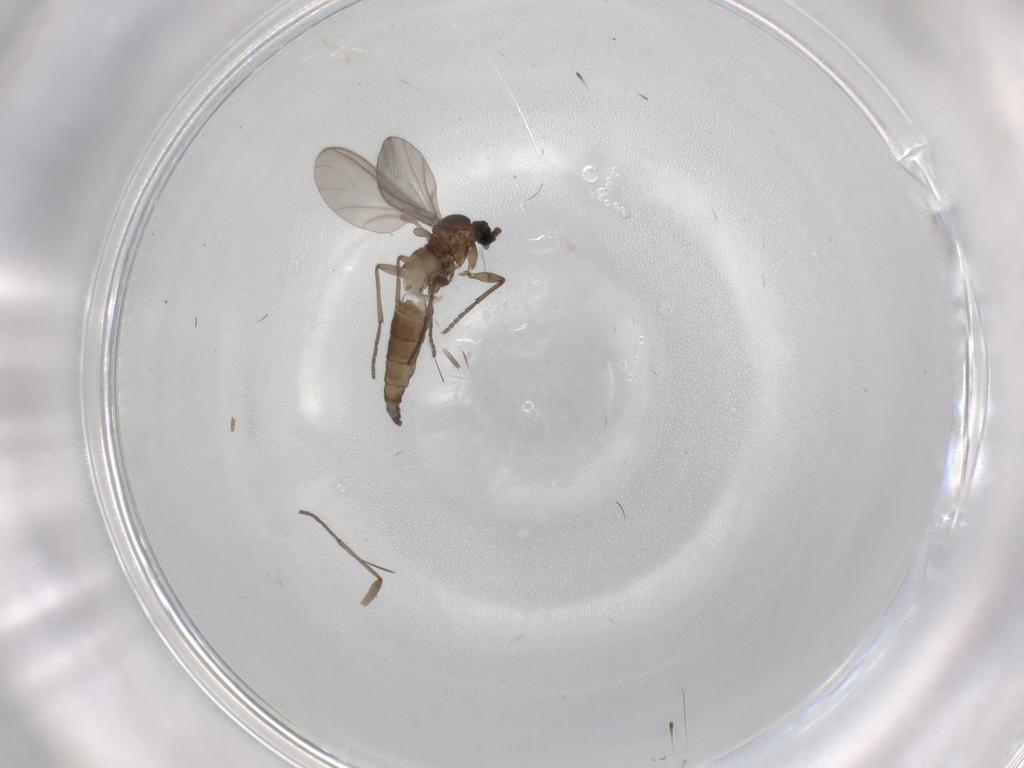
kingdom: Animalia
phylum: Arthropoda
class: Insecta
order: Diptera
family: Sciaridae
